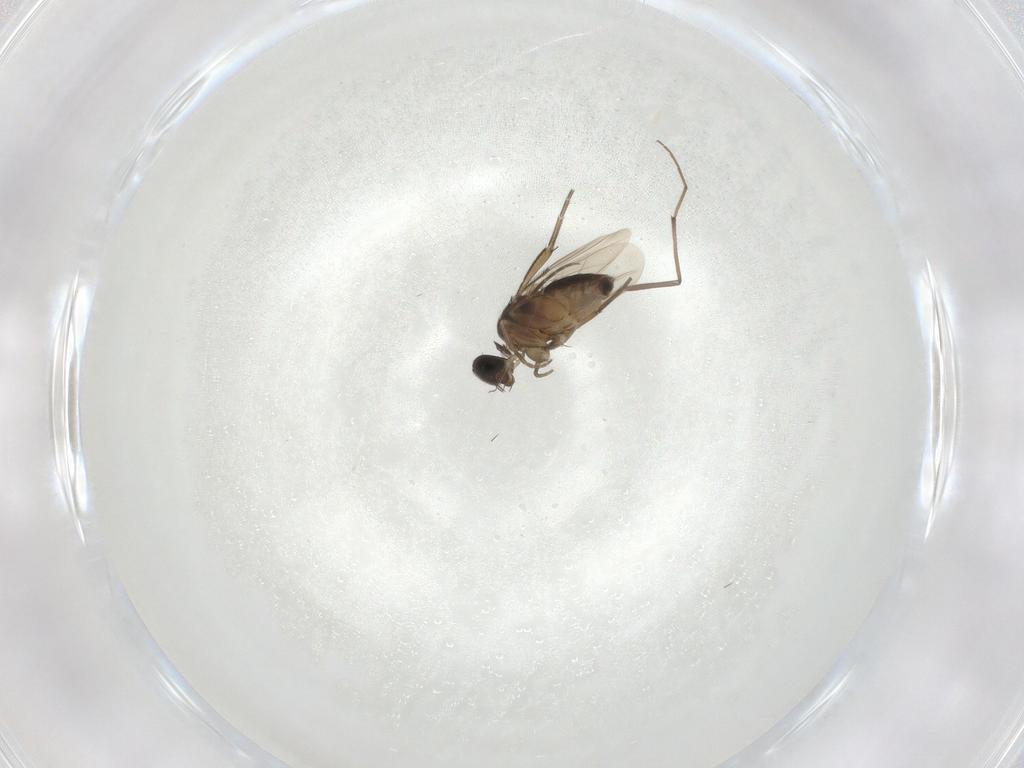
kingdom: Animalia
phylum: Arthropoda
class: Insecta
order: Diptera
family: Phoridae
